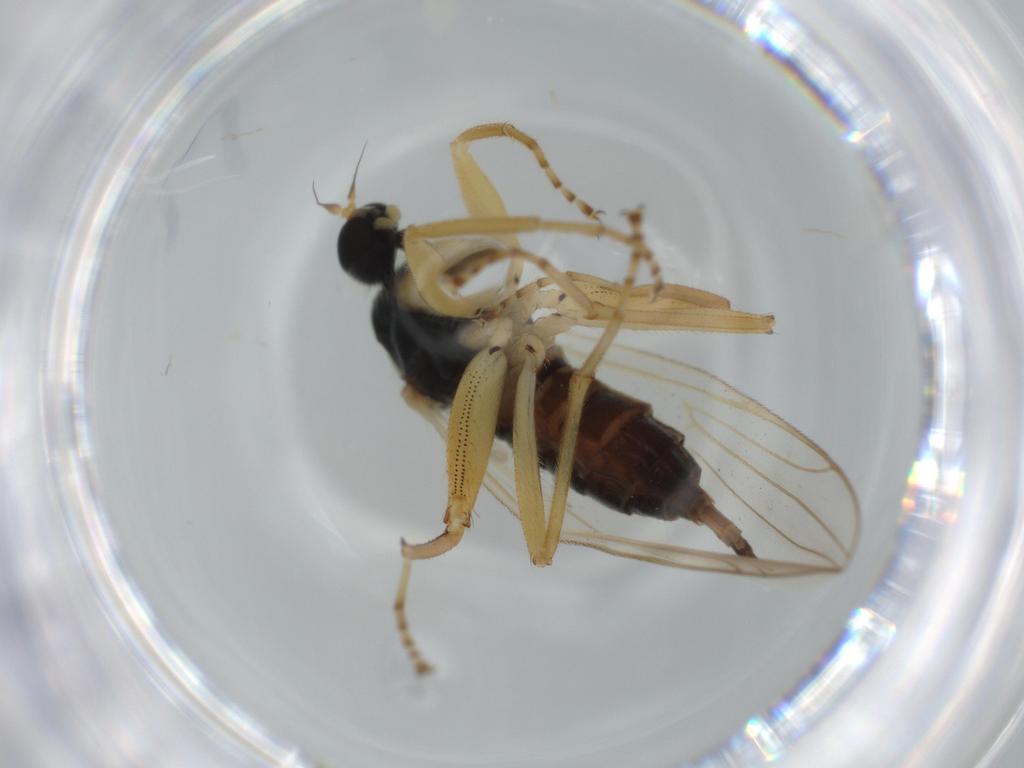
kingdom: Animalia
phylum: Arthropoda
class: Insecta
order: Diptera
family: Hybotidae
